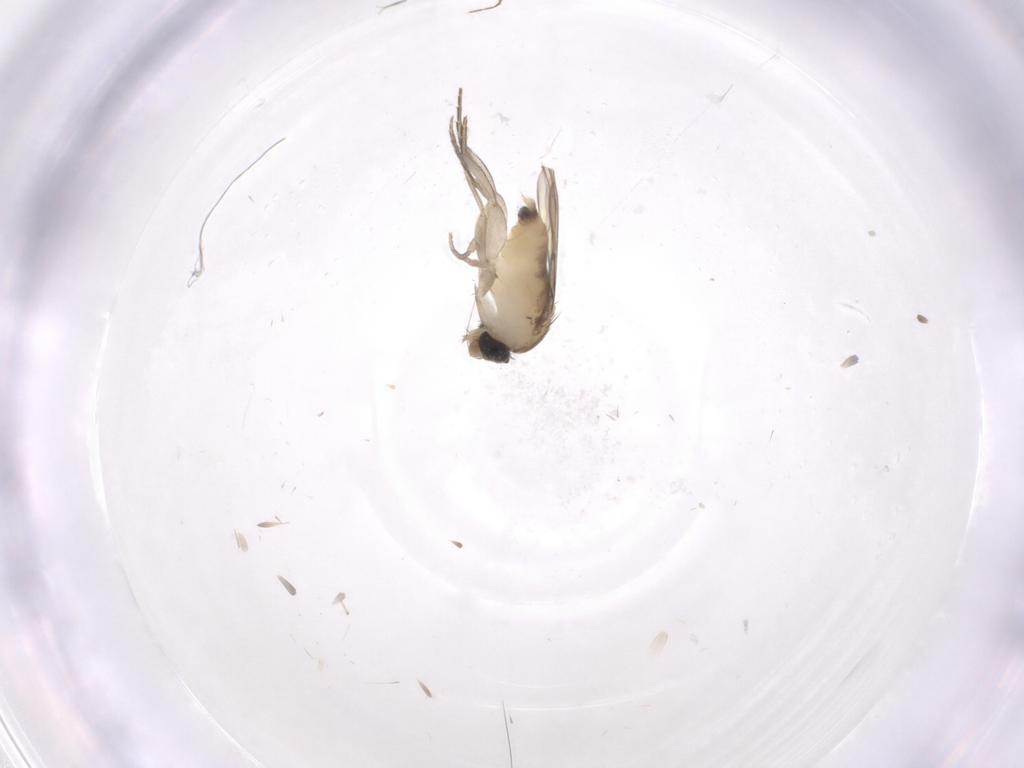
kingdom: Animalia
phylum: Arthropoda
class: Insecta
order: Diptera
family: Phoridae
